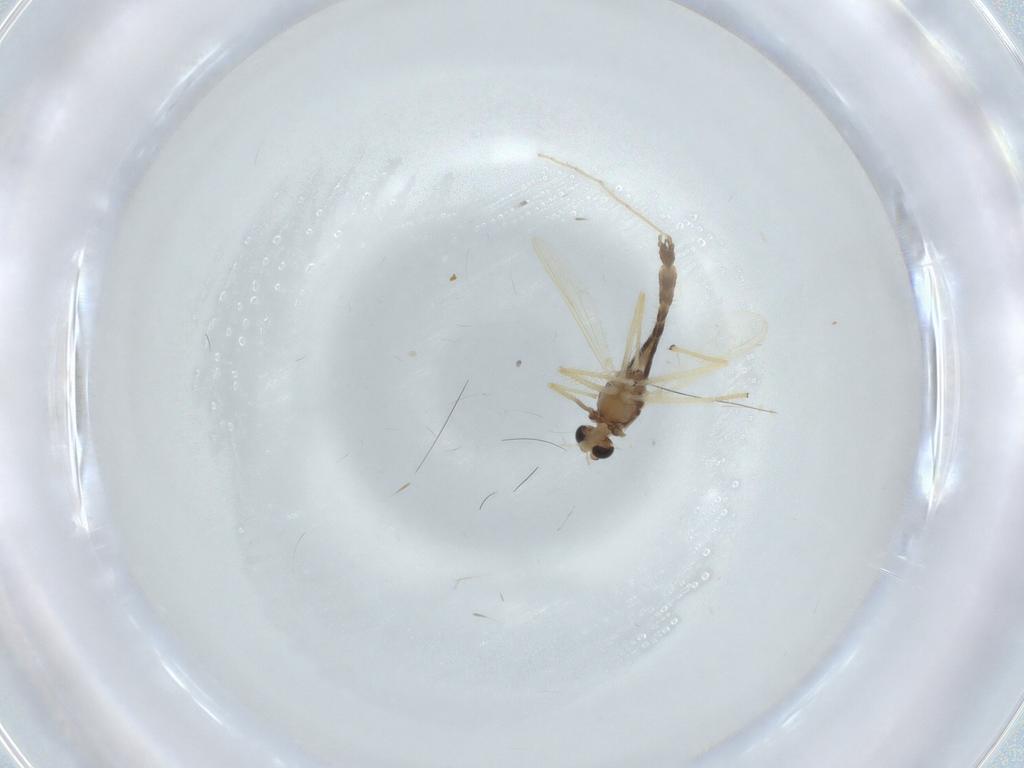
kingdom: Animalia
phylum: Arthropoda
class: Insecta
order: Diptera
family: Chironomidae
